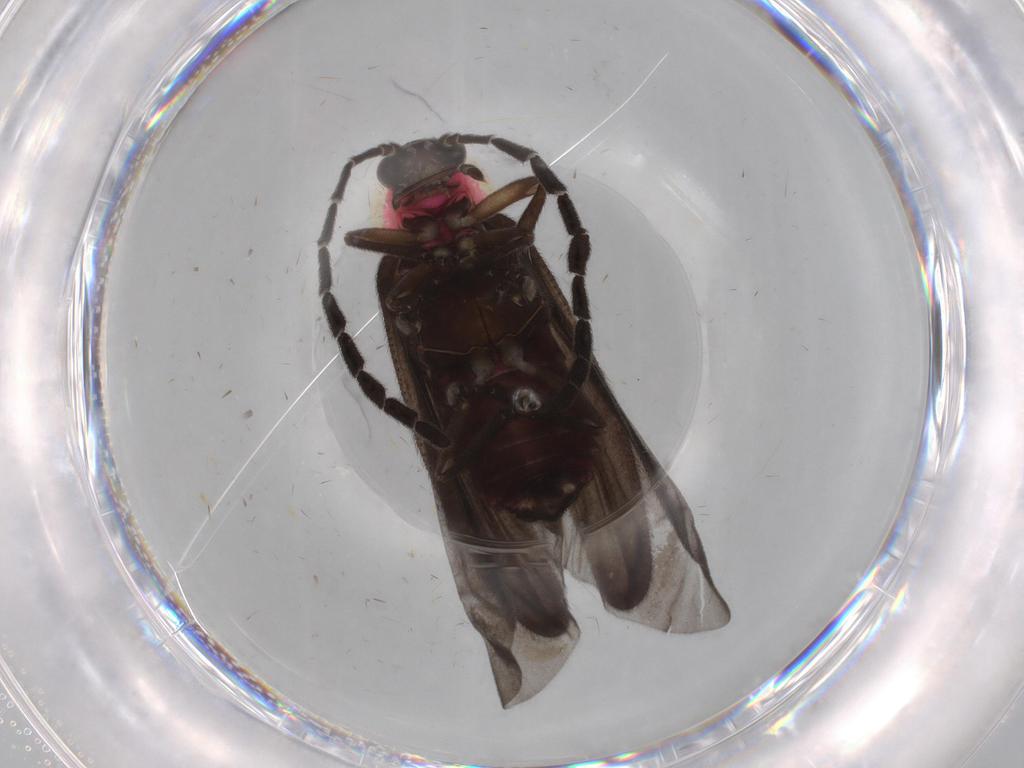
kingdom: Animalia
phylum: Arthropoda
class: Insecta
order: Coleoptera
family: Lampyridae
